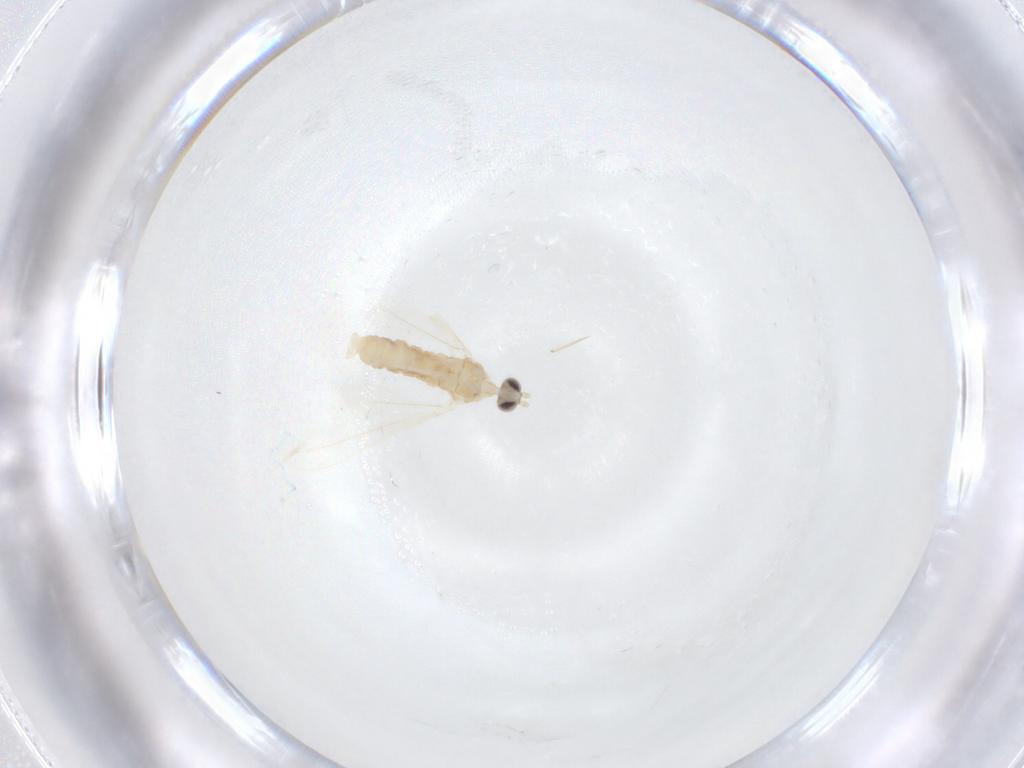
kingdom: Animalia
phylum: Arthropoda
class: Insecta
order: Diptera
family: Cecidomyiidae
